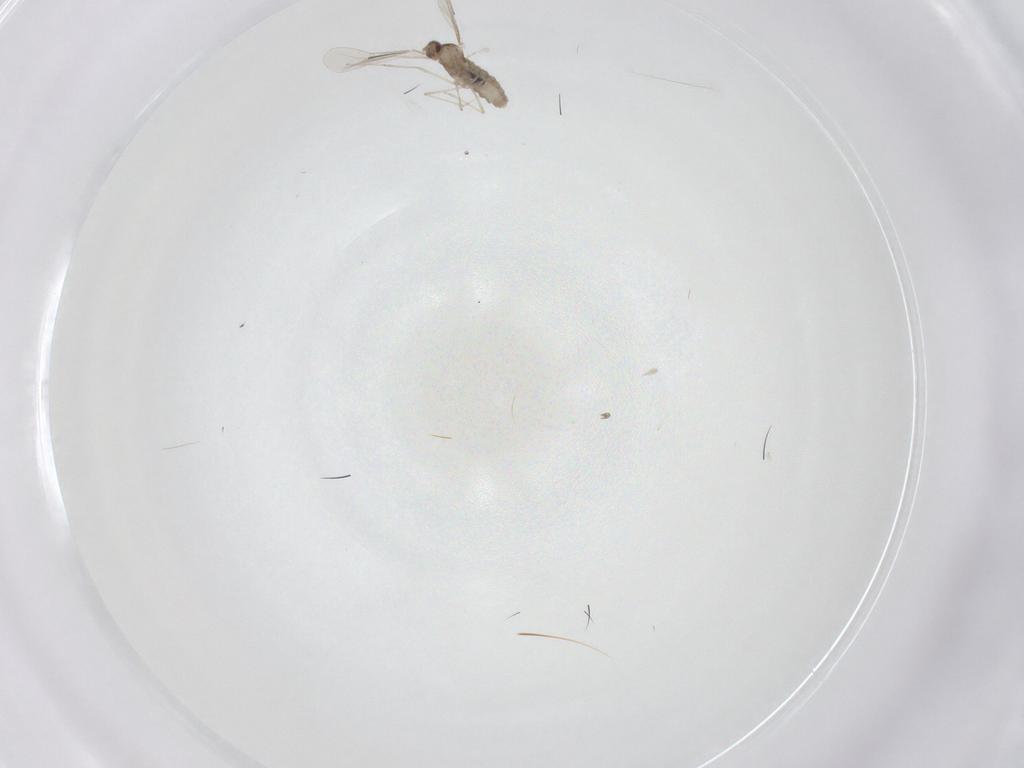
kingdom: Animalia
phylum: Arthropoda
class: Insecta
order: Diptera
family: Cecidomyiidae
